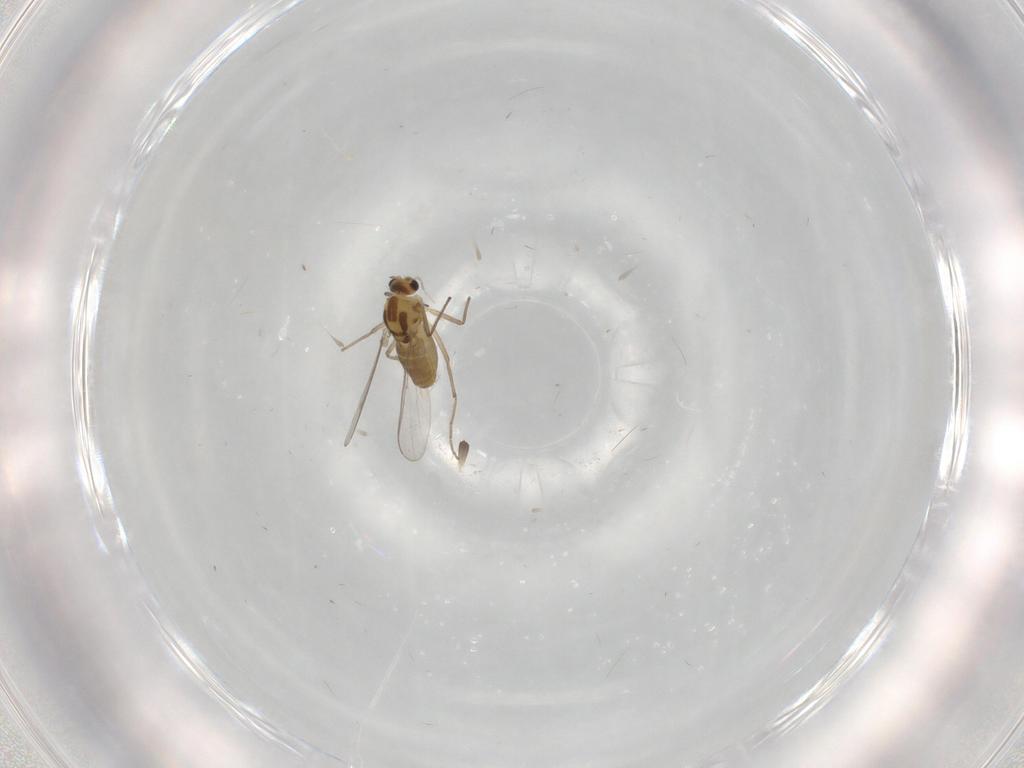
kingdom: Animalia
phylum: Arthropoda
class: Insecta
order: Diptera
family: Chironomidae
